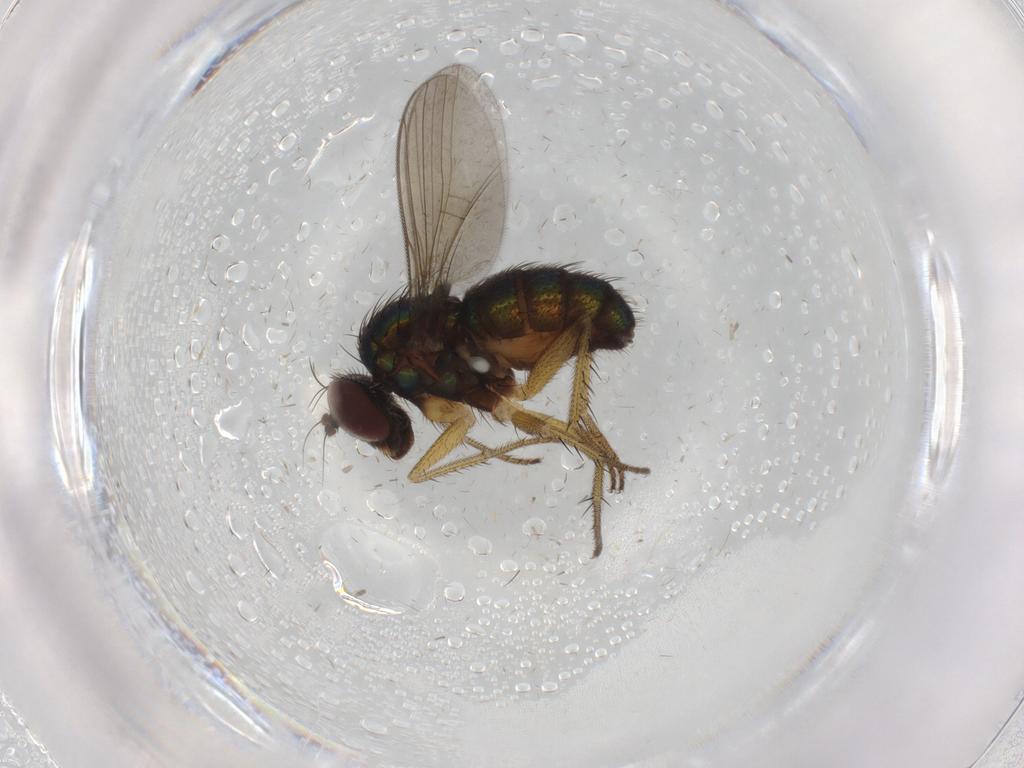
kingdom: Animalia
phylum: Arthropoda
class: Insecta
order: Diptera
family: Dolichopodidae
